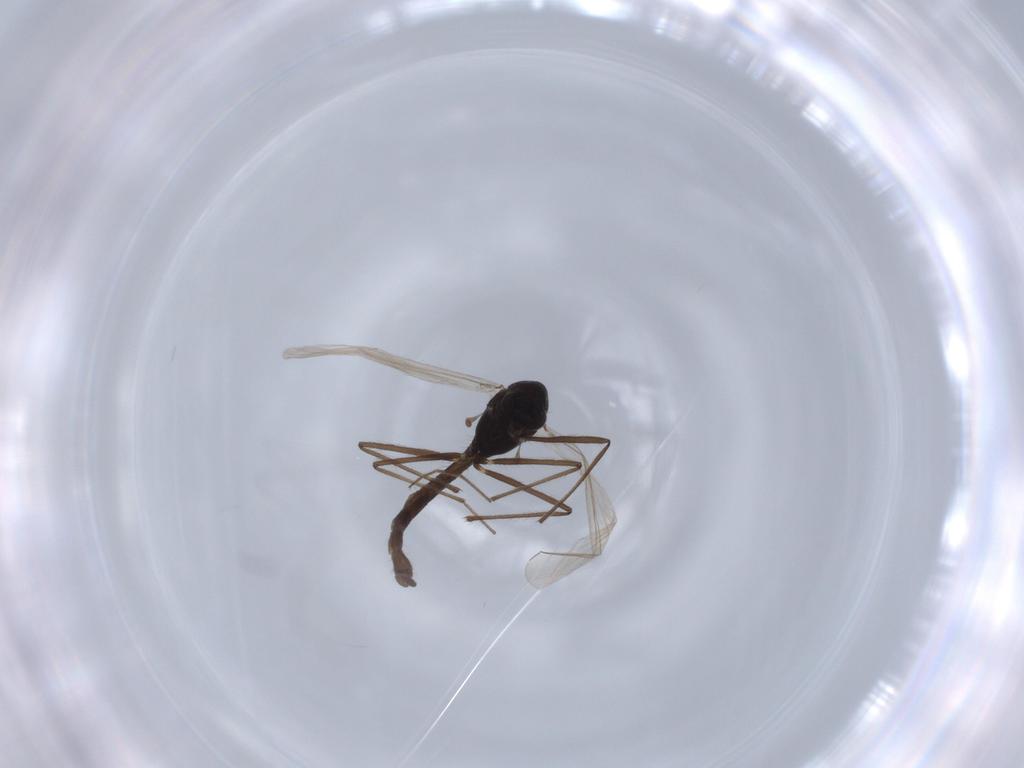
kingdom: Animalia
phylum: Arthropoda
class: Insecta
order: Diptera
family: Chironomidae
